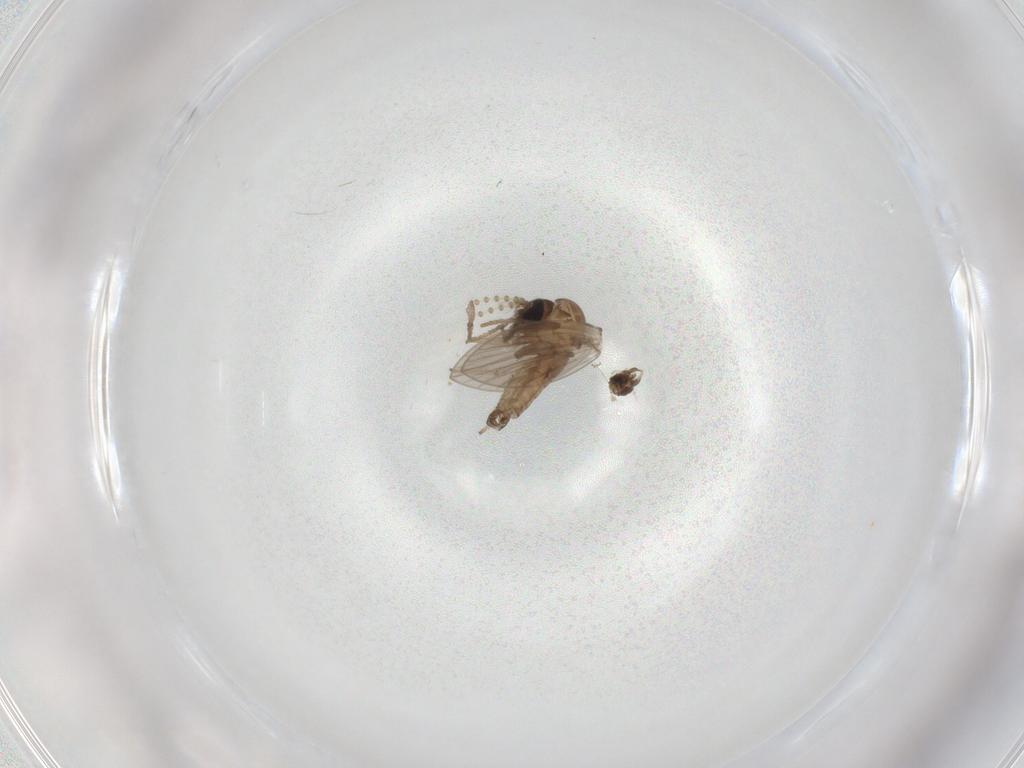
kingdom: Animalia
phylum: Arthropoda
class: Insecta
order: Diptera
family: Psychodidae
